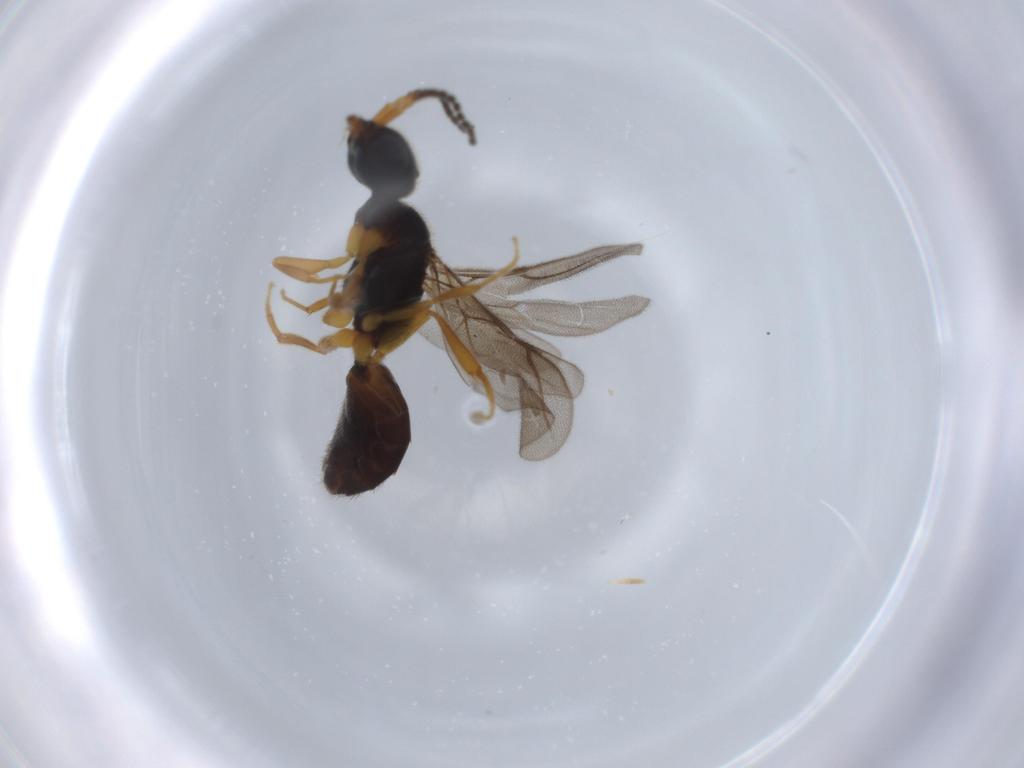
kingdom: Animalia
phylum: Arthropoda
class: Insecta
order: Hymenoptera
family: Bethylidae
